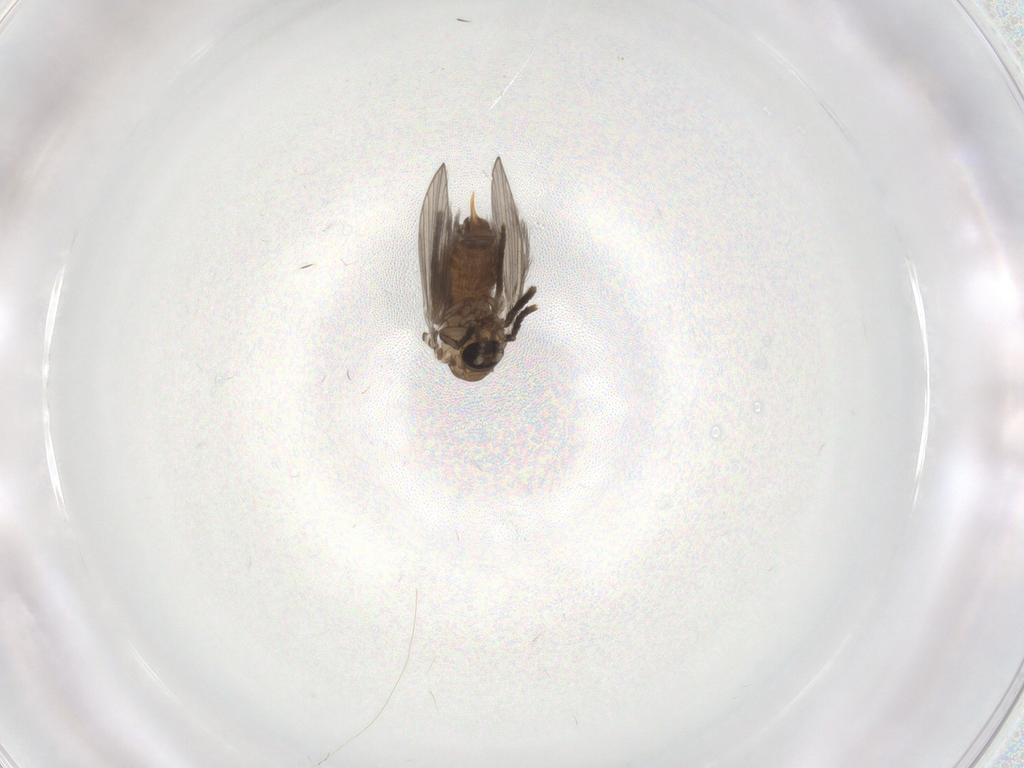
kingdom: Animalia
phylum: Arthropoda
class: Insecta
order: Diptera
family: Psychodidae
